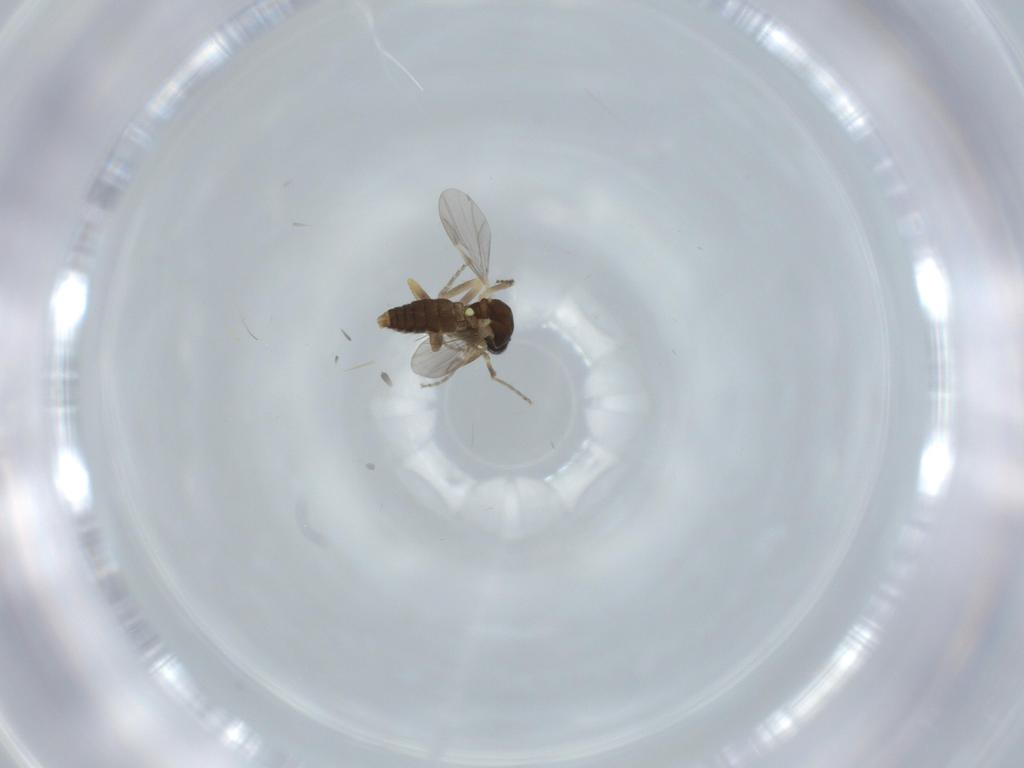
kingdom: Animalia
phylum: Arthropoda
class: Insecta
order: Diptera
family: Ceratopogonidae
